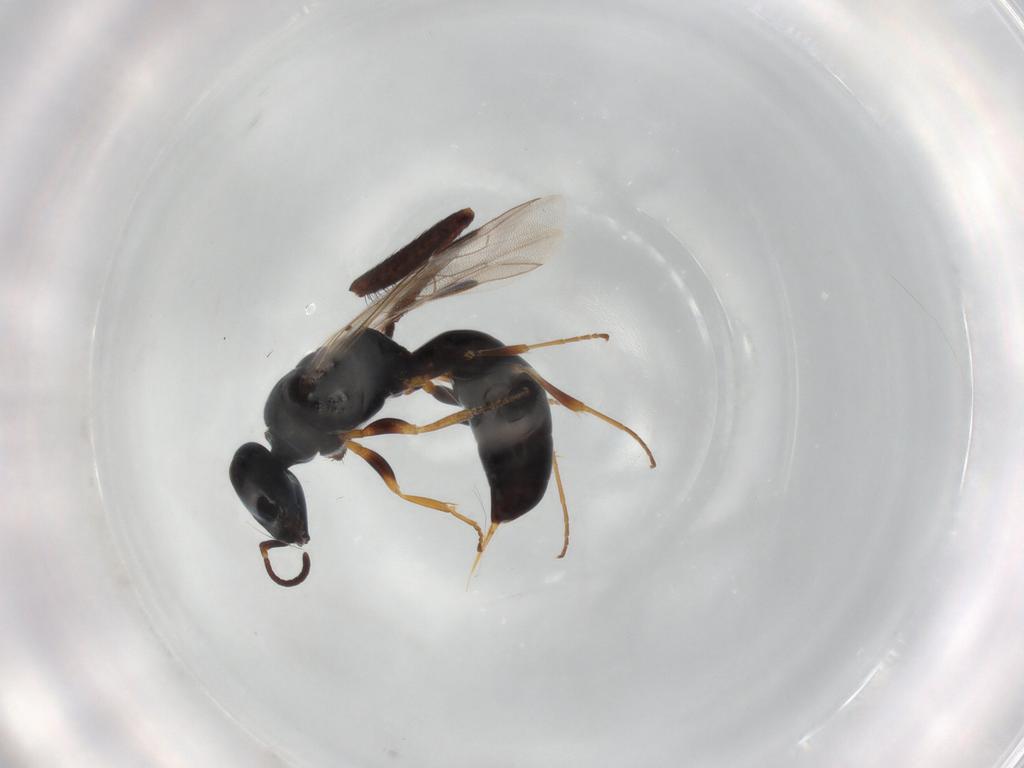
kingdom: Animalia
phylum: Arthropoda
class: Insecta
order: Hymenoptera
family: Pemphredonidae
